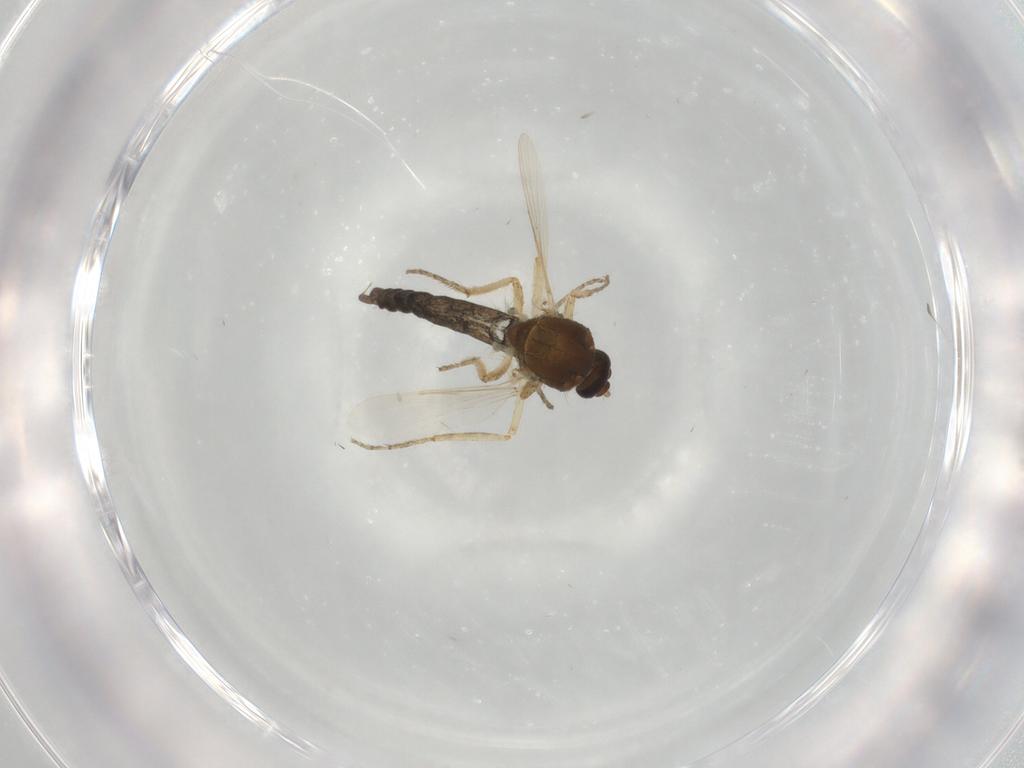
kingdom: Animalia
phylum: Arthropoda
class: Insecta
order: Diptera
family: Ceratopogonidae
